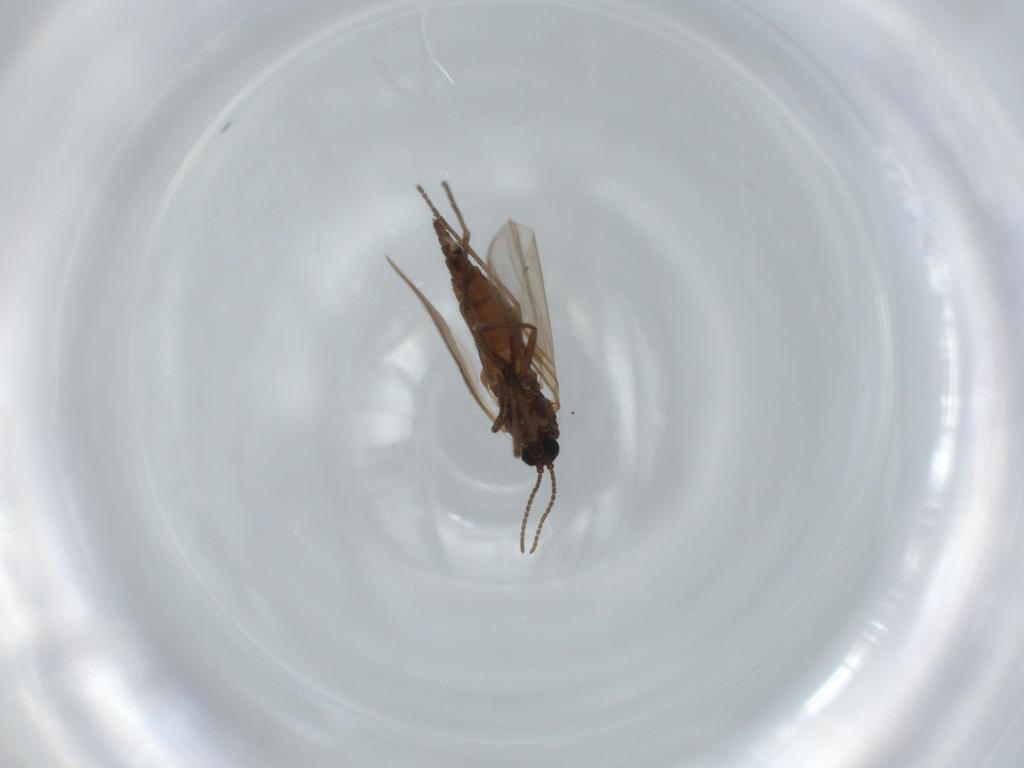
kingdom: Animalia
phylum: Arthropoda
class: Insecta
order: Diptera
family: Sciaridae
